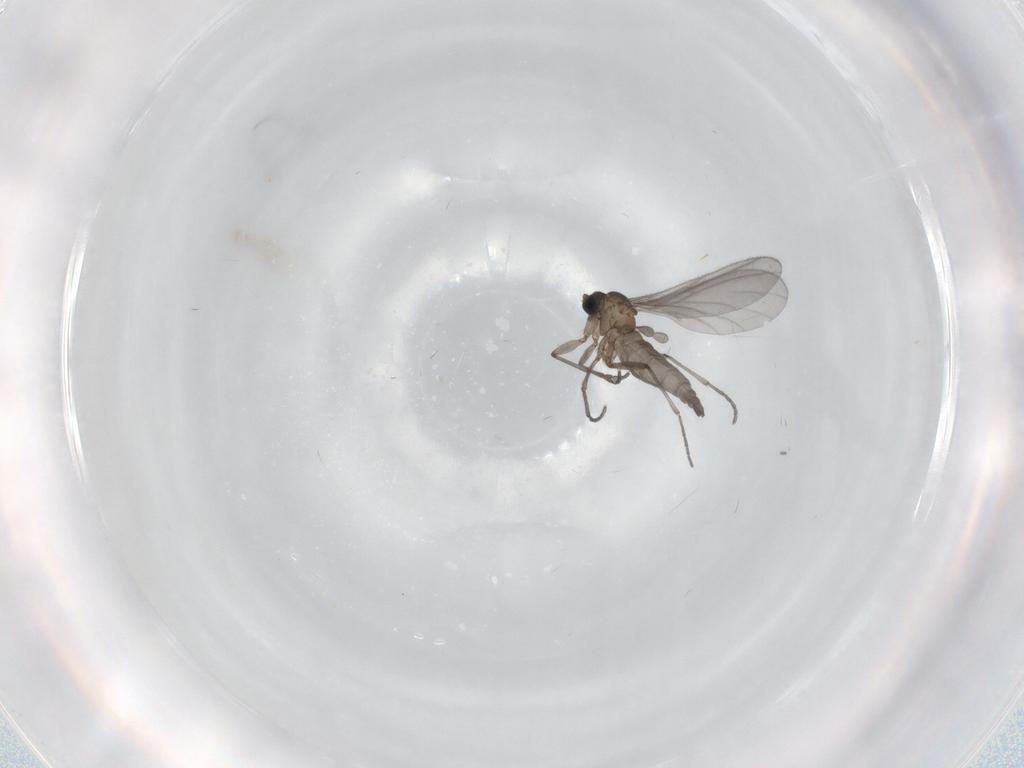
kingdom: Animalia
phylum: Arthropoda
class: Insecta
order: Diptera
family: Sciaridae
